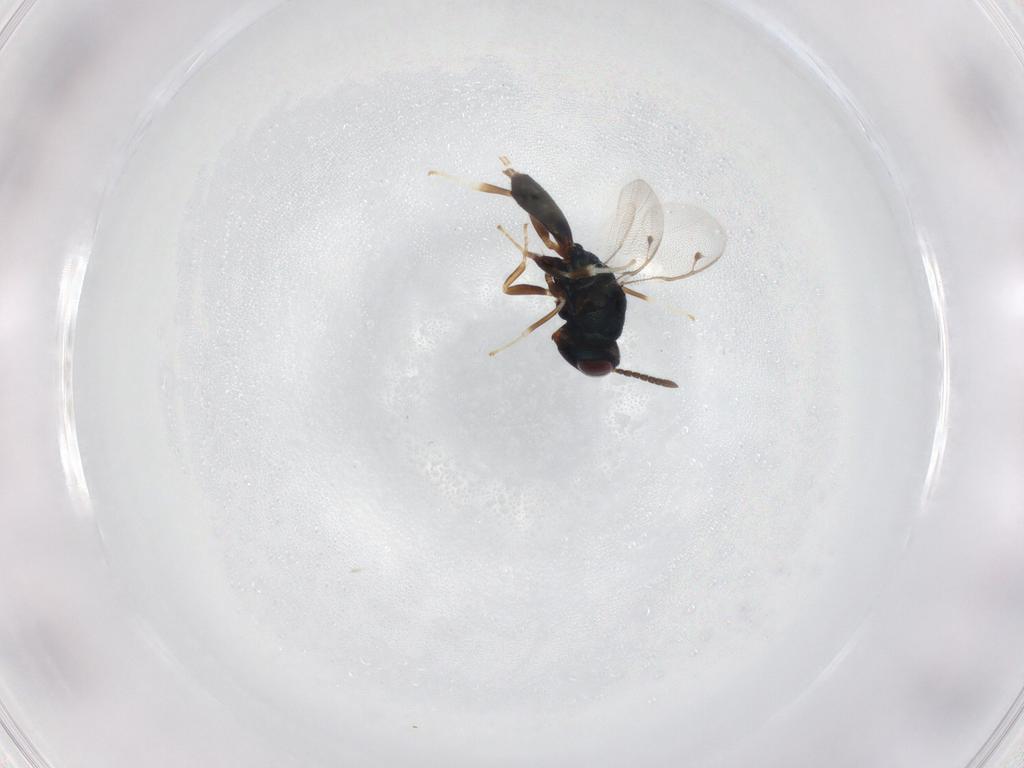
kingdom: Animalia
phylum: Arthropoda
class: Insecta
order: Hymenoptera
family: Pteromalidae
